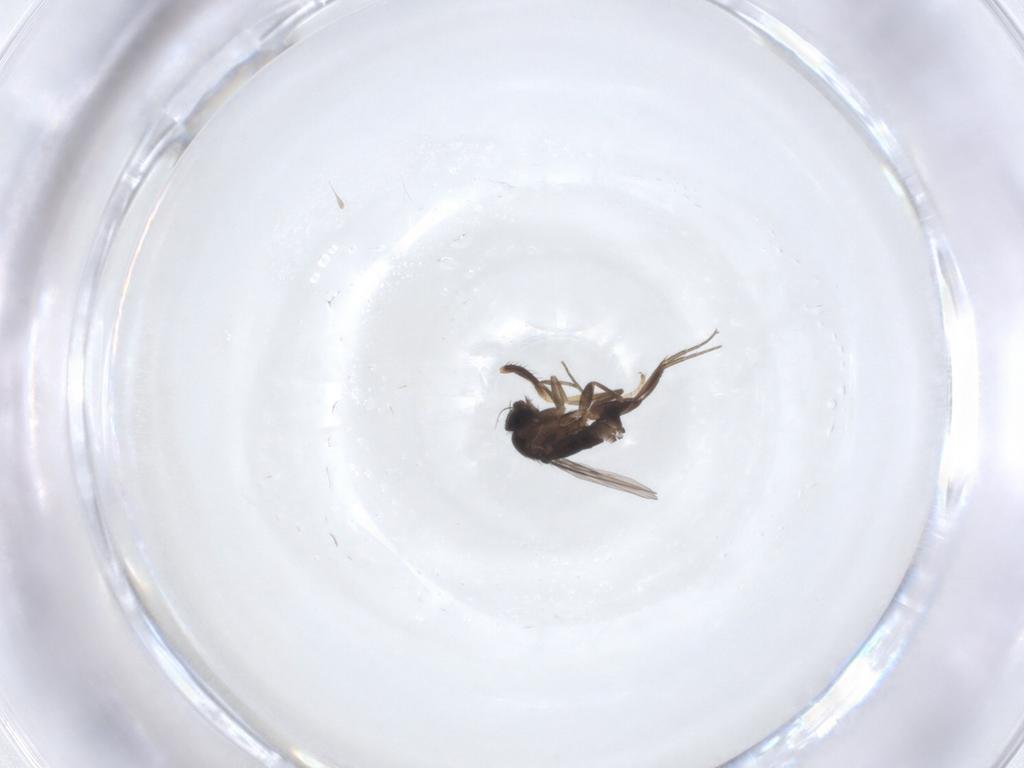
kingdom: Animalia
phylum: Arthropoda
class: Insecta
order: Diptera
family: Milichiidae
